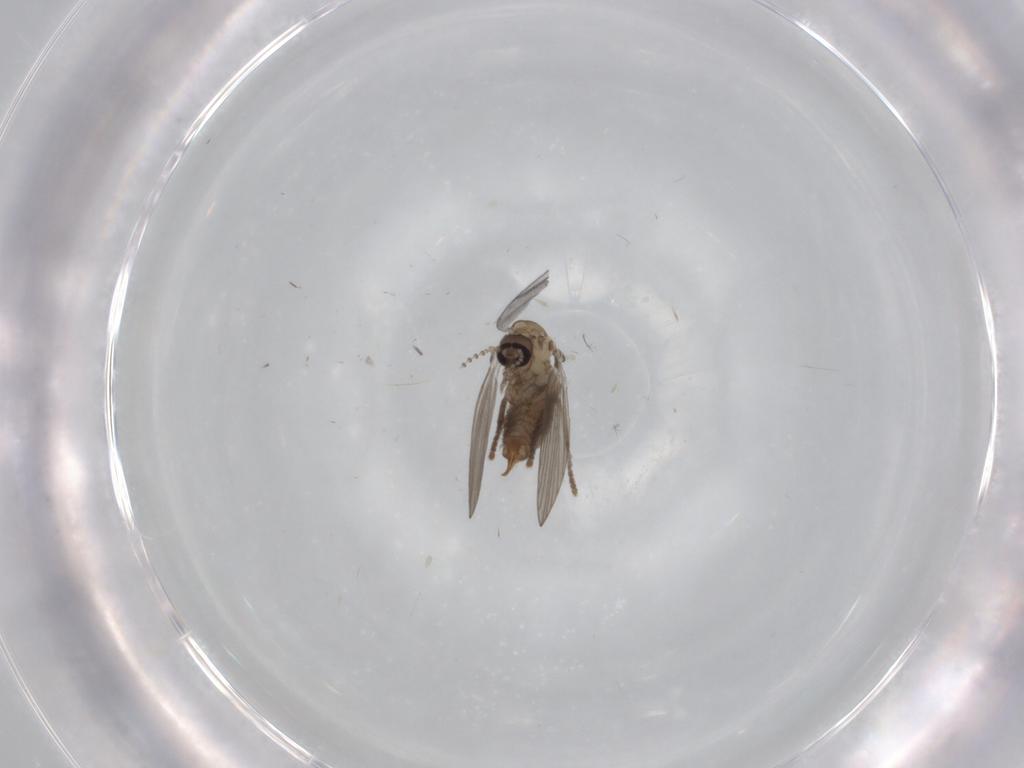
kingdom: Animalia
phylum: Arthropoda
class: Insecta
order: Diptera
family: Psychodidae
